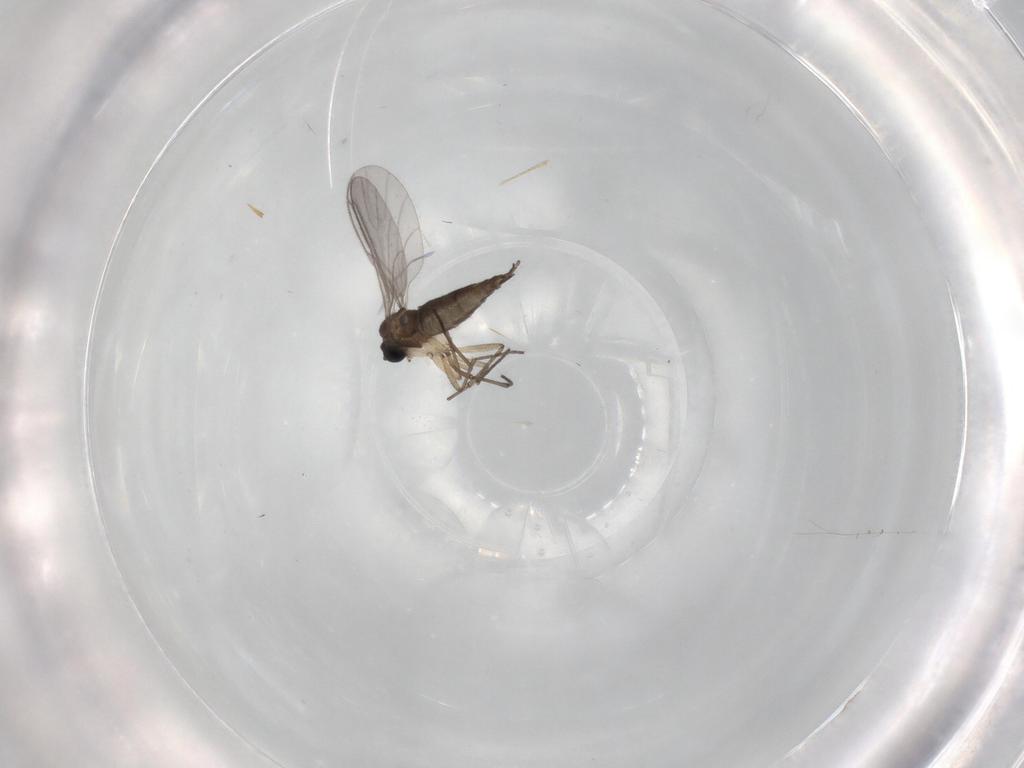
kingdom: Animalia
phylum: Arthropoda
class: Insecta
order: Diptera
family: Sciaridae
